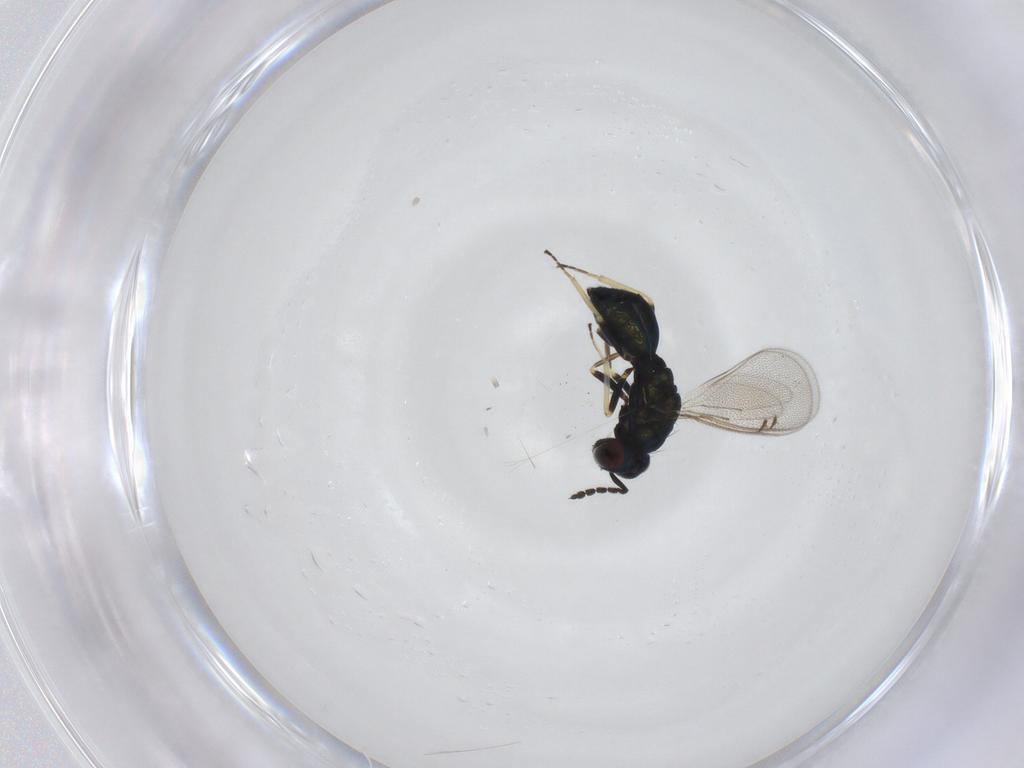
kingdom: Animalia
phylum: Arthropoda
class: Insecta
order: Hymenoptera
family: Eulophidae
